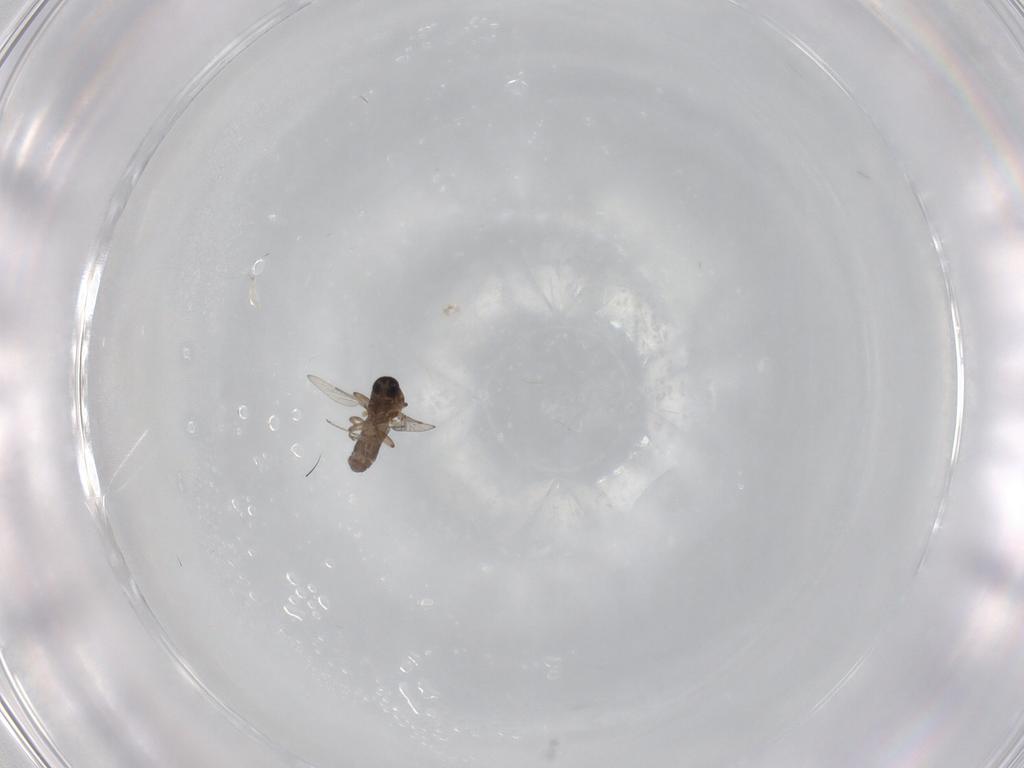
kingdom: Animalia
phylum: Arthropoda
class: Insecta
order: Diptera
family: Ceratopogonidae
